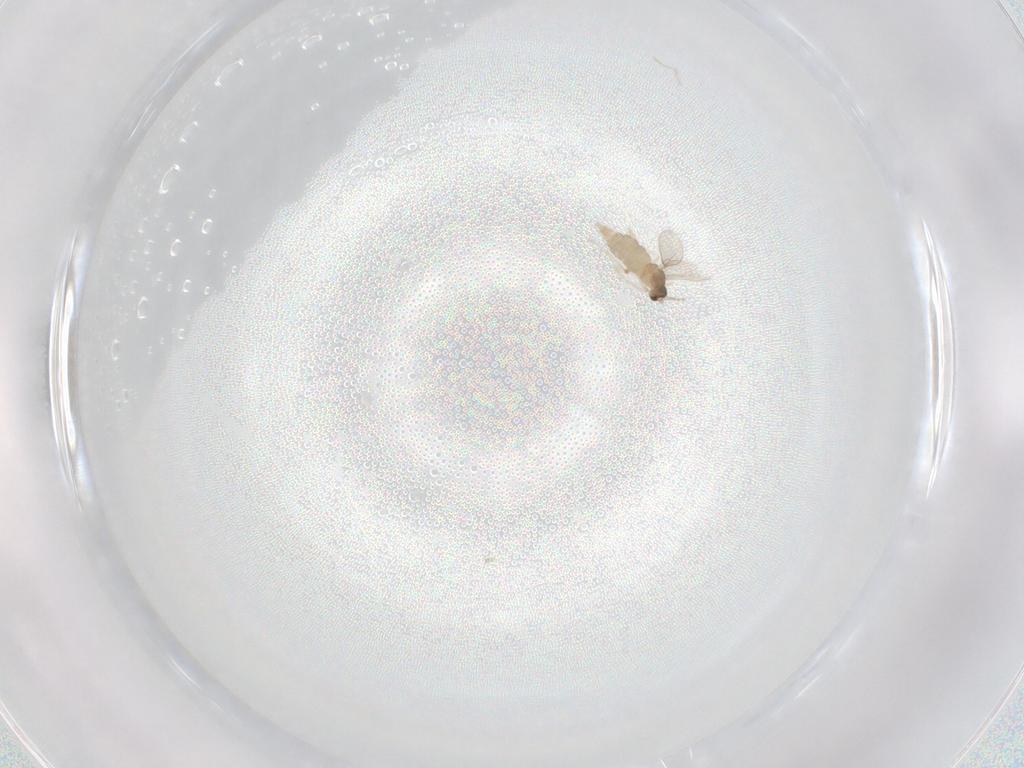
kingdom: Animalia
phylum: Arthropoda
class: Insecta
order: Diptera
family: Cecidomyiidae
